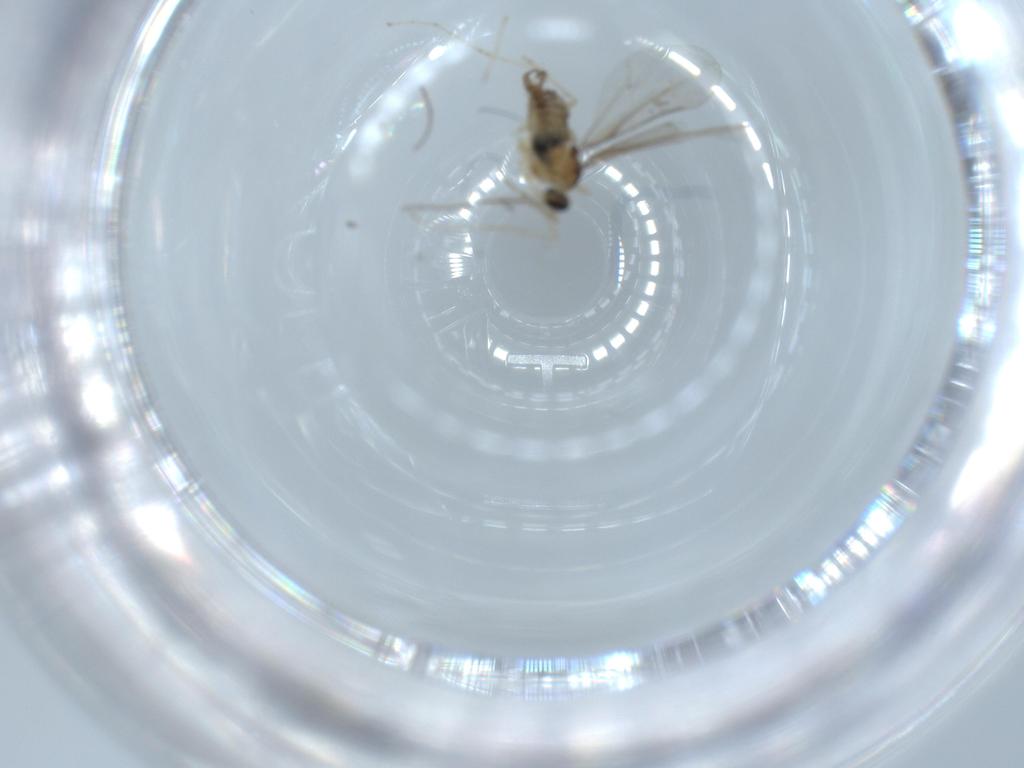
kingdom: Animalia
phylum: Arthropoda
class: Insecta
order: Diptera
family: Cecidomyiidae
